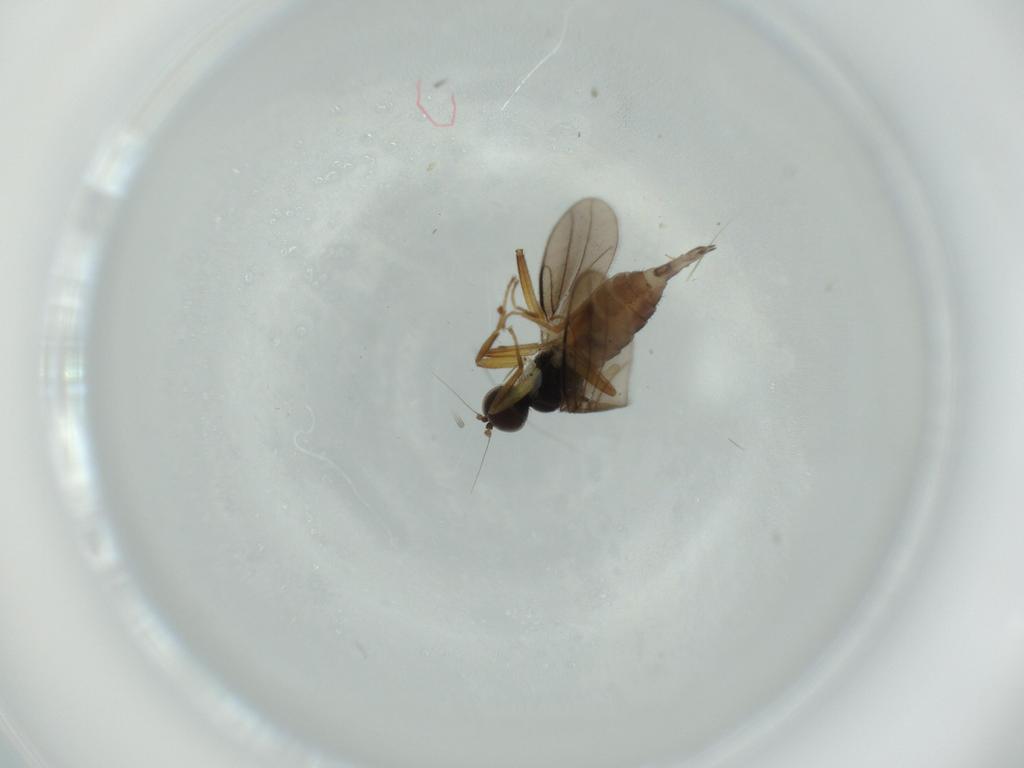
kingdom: Animalia
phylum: Arthropoda
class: Insecta
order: Diptera
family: Hybotidae
